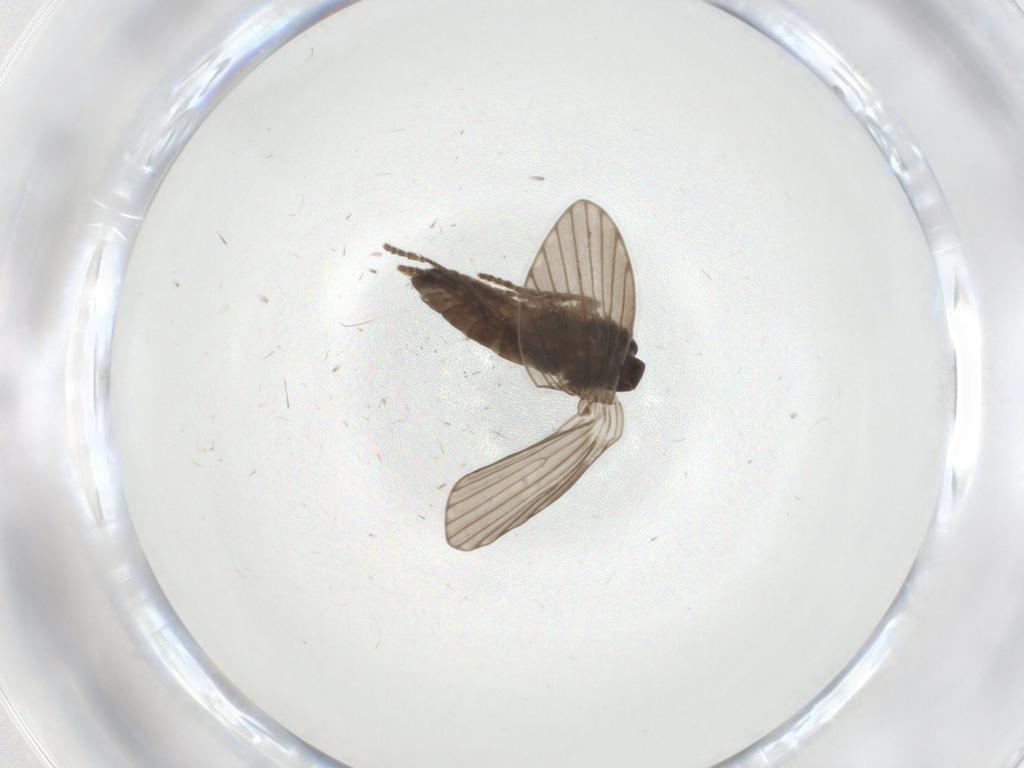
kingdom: Animalia
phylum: Arthropoda
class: Insecta
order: Diptera
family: Psychodidae
